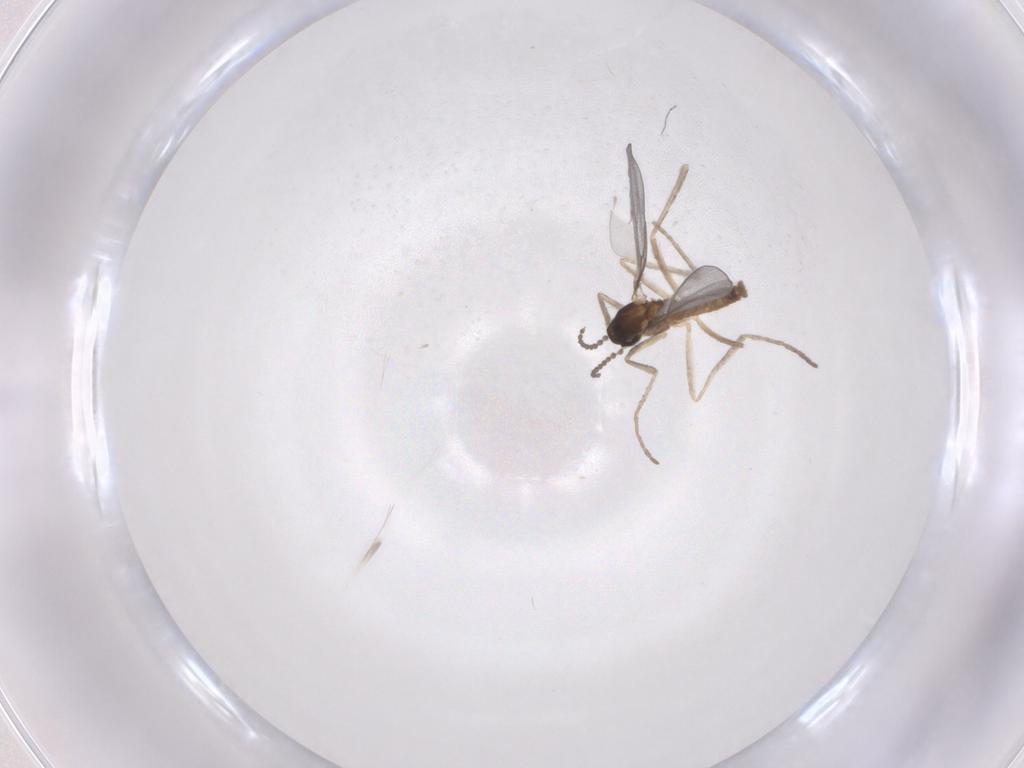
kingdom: Animalia
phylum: Arthropoda
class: Insecta
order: Diptera
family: Cecidomyiidae
